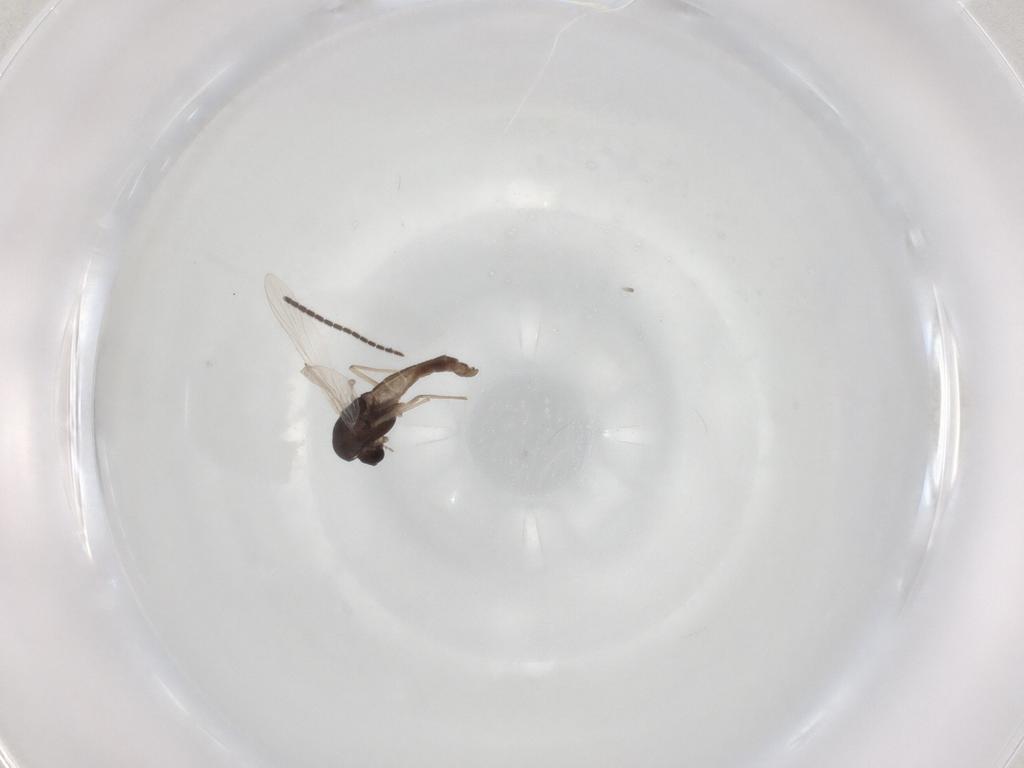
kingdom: Animalia
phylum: Arthropoda
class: Insecta
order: Diptera
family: Chironomidae
